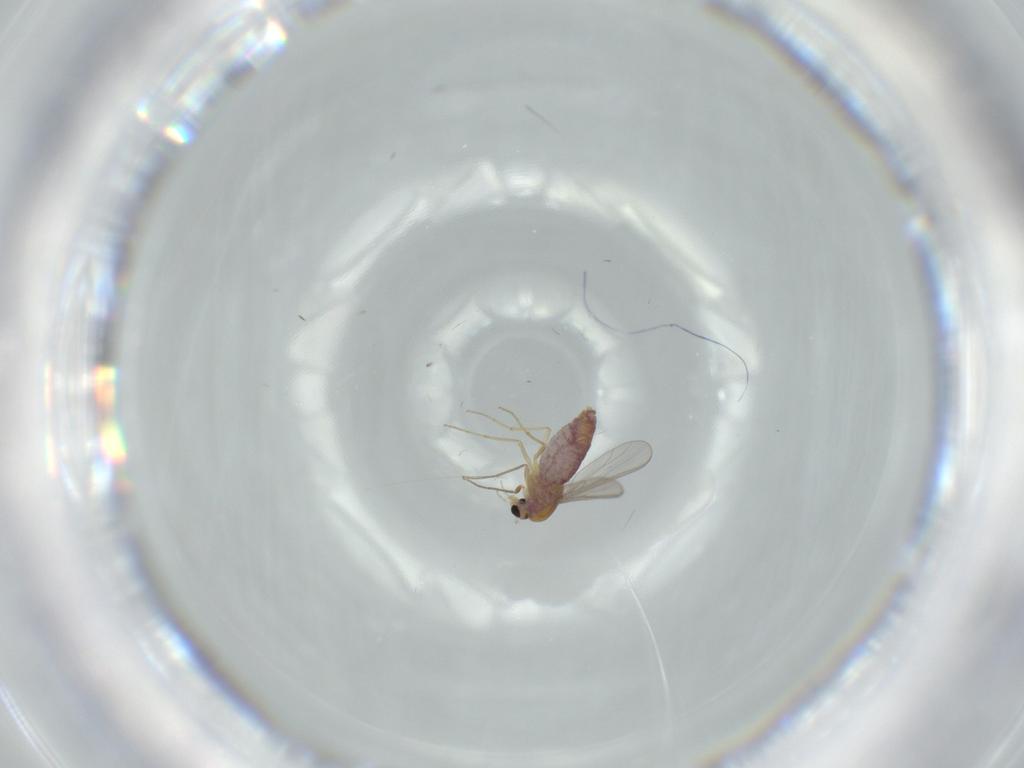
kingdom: Animalia
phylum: Arthropoda
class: Insecta
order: Diptera
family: Chironomidae
